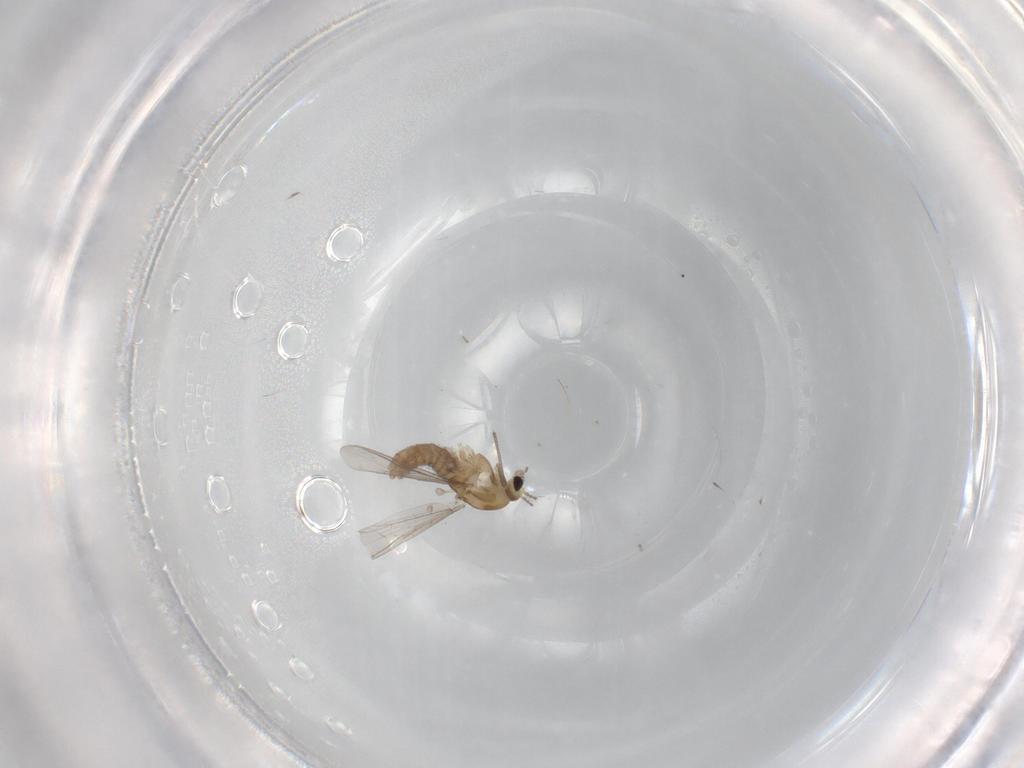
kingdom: Animalia
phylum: Arthropoda
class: Insecta
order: Diptera
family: Chironomidae
